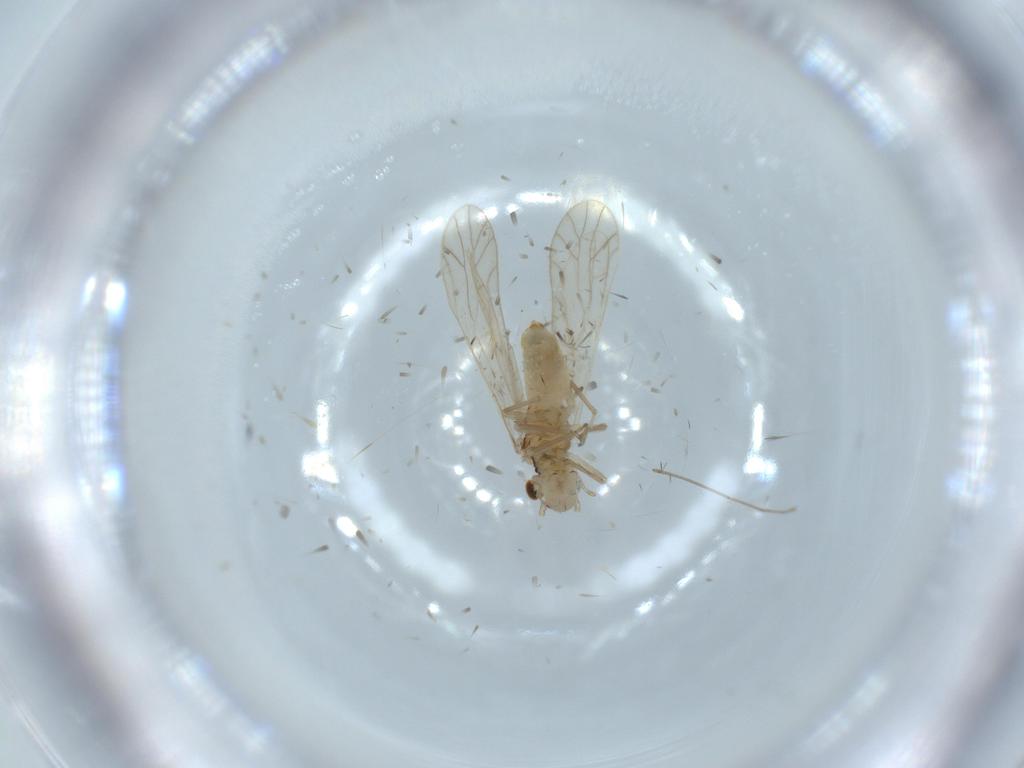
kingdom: Animalia
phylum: Arthropoda
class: Insecta
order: Psocodea
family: Caeciliusidae
